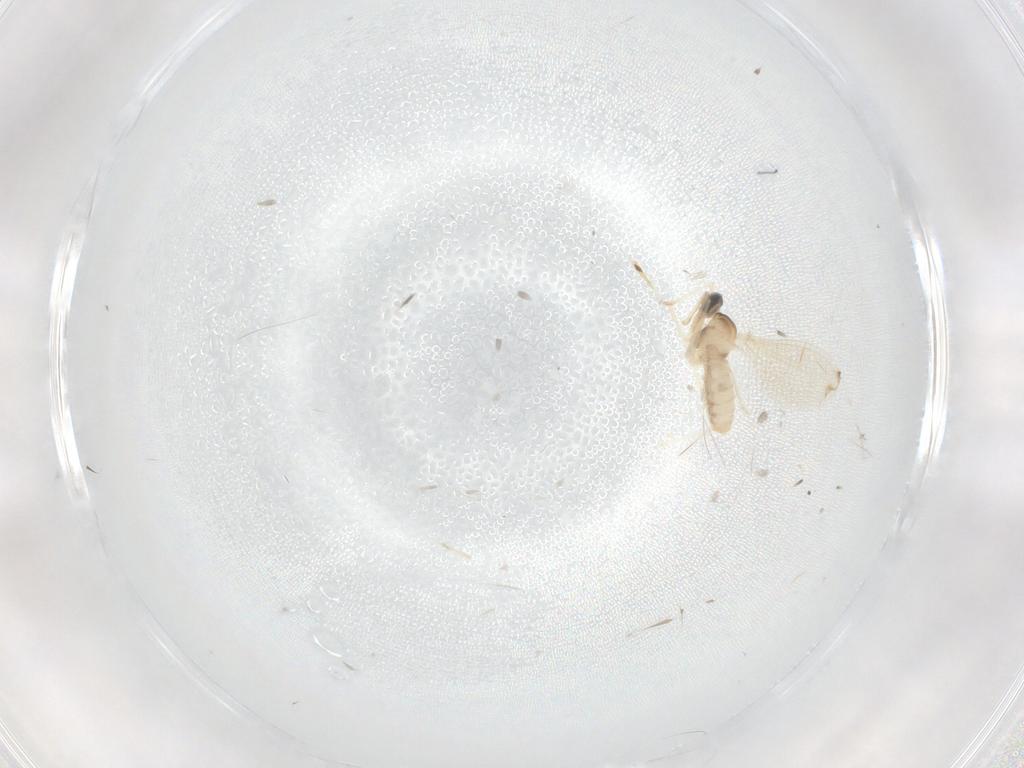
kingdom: Animalia
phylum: Arthropoda
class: Insecta
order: Diptera
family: Cecidomyiidae
